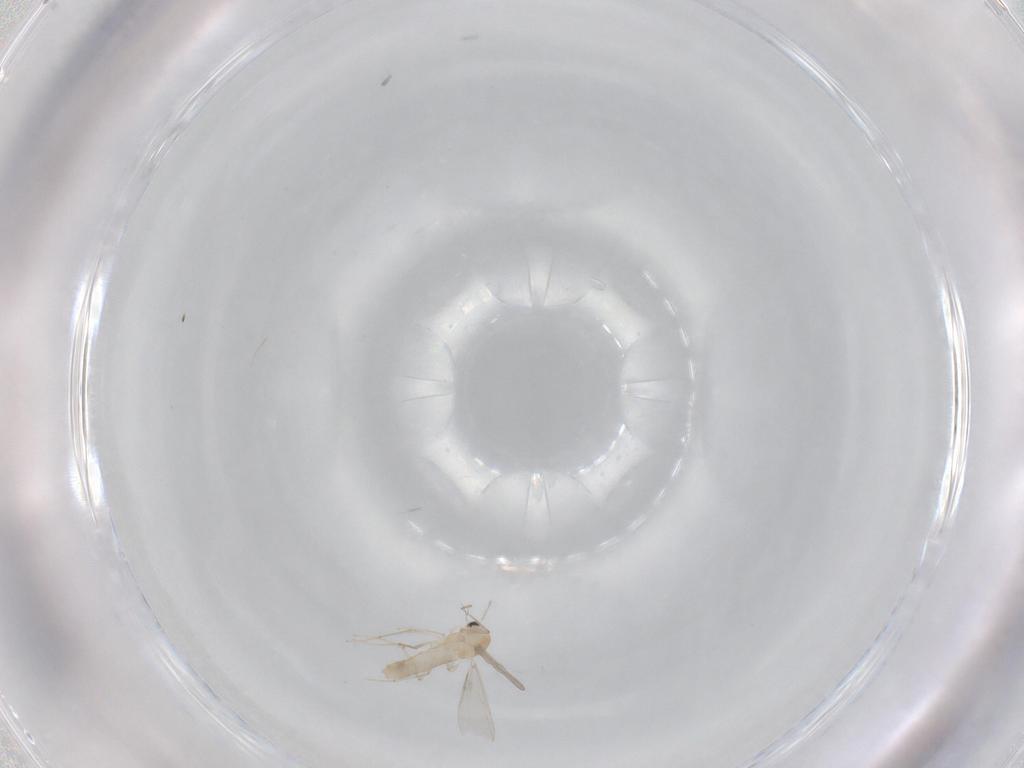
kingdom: Animalia
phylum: Arthropoda
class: Insecta
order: Diptera
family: Chironomidae
